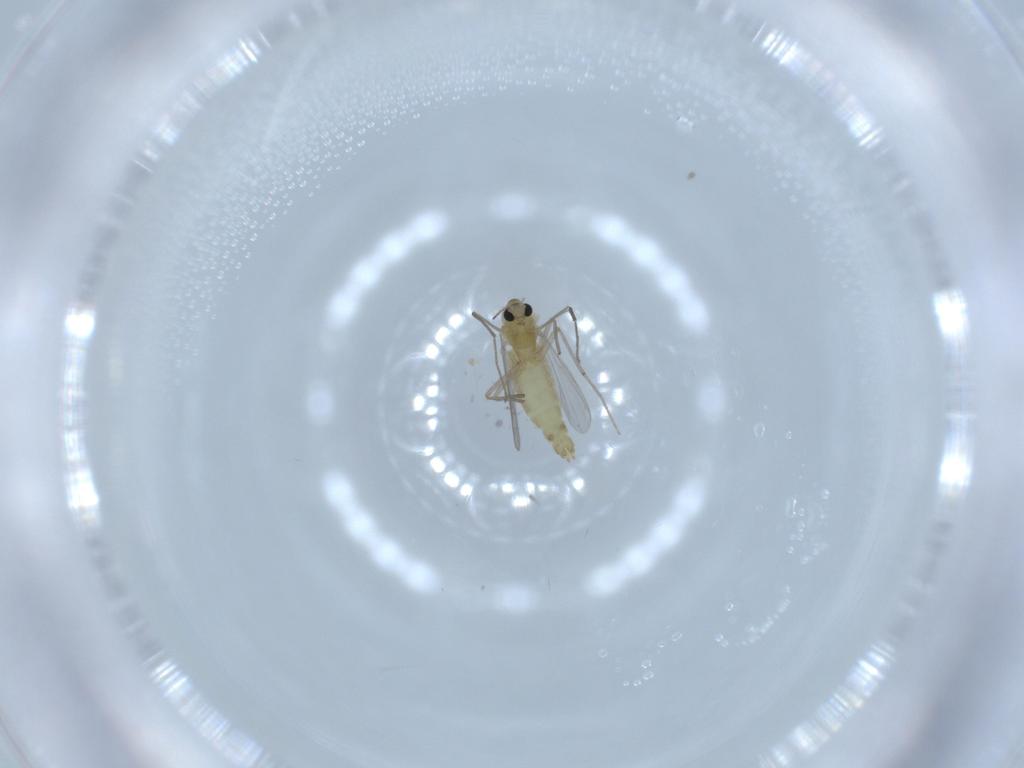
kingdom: Animalia
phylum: Arthropoda
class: Insecta
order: Diptera
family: Chironomidae
